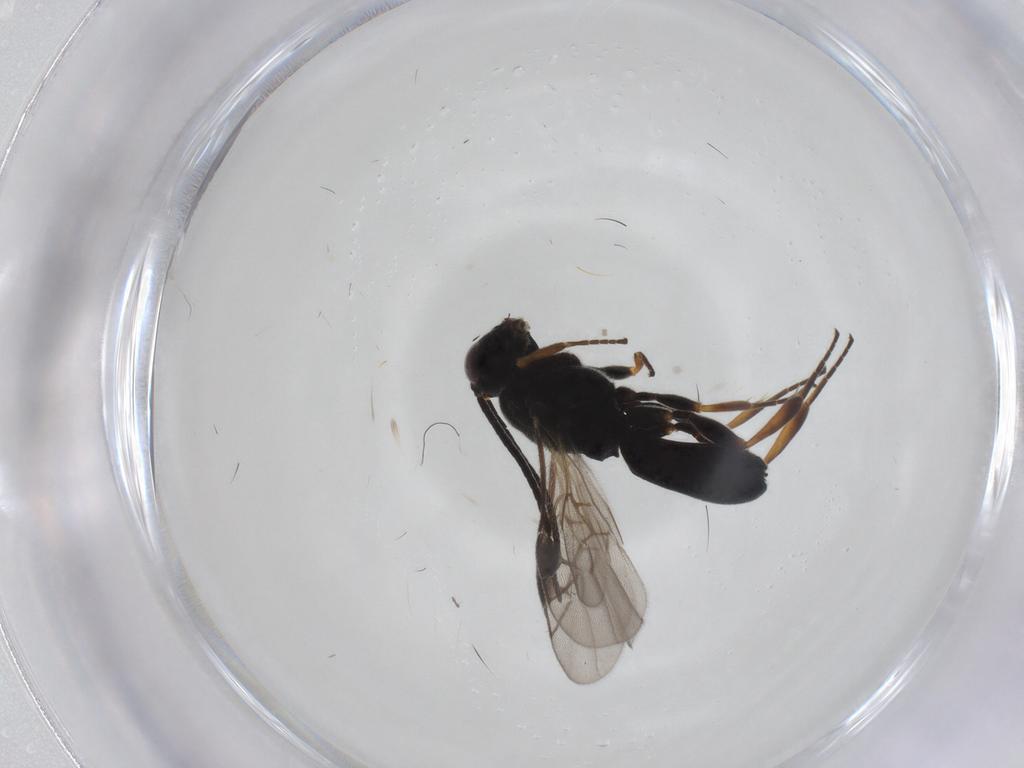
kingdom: Animalia
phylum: Arthropoda
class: Insecta
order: Hymenoptera
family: Braconidae
